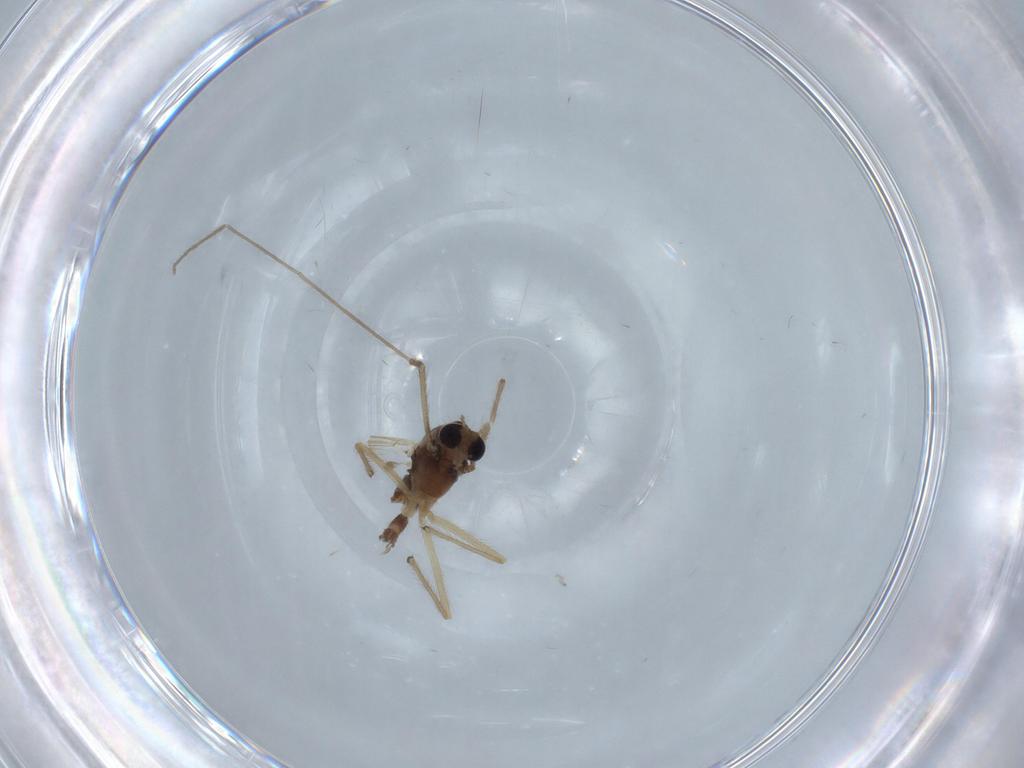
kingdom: Animalia
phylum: Arthropoda
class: Insecta
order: Diptera
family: Chironomidae
